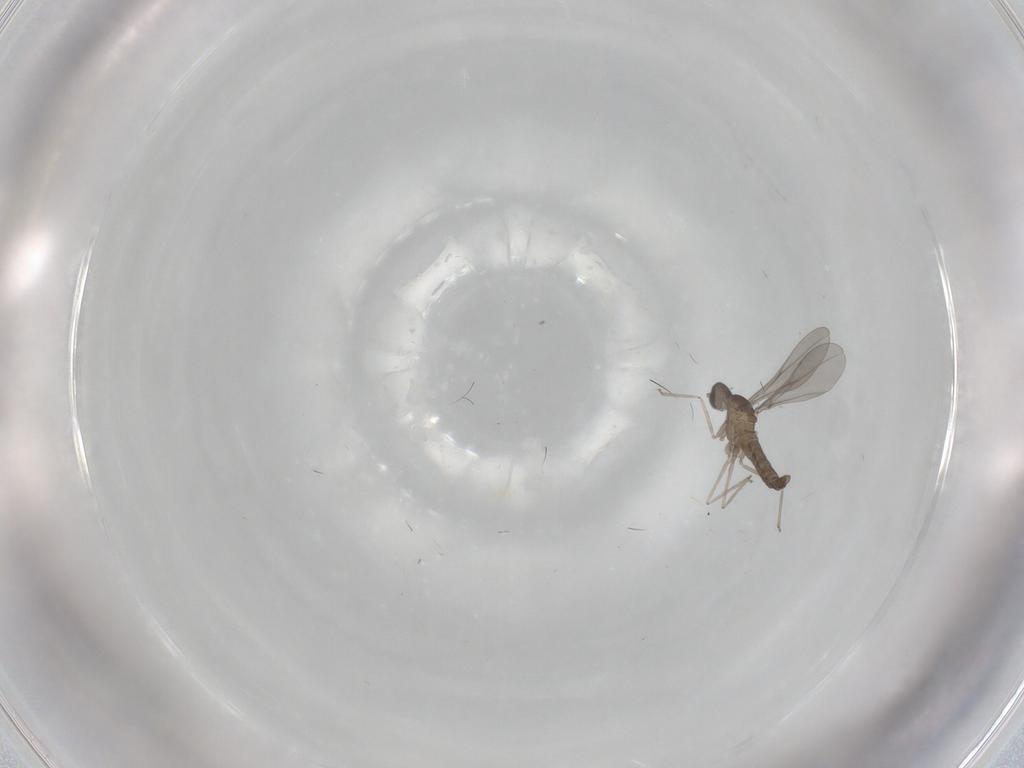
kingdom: Animalia
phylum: Arthropoda
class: Insecta
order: Diptera
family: Cecidomyiidae
